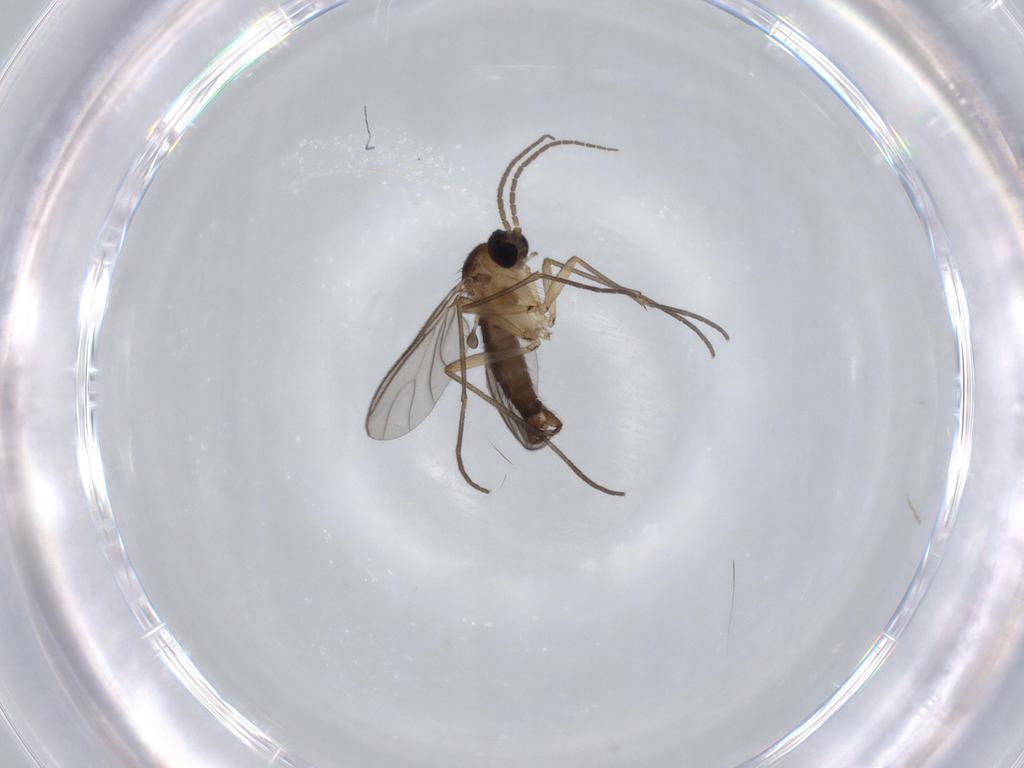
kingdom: Animalia
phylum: Arthropoda
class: Insecta
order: Diptera
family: Sciaridae
